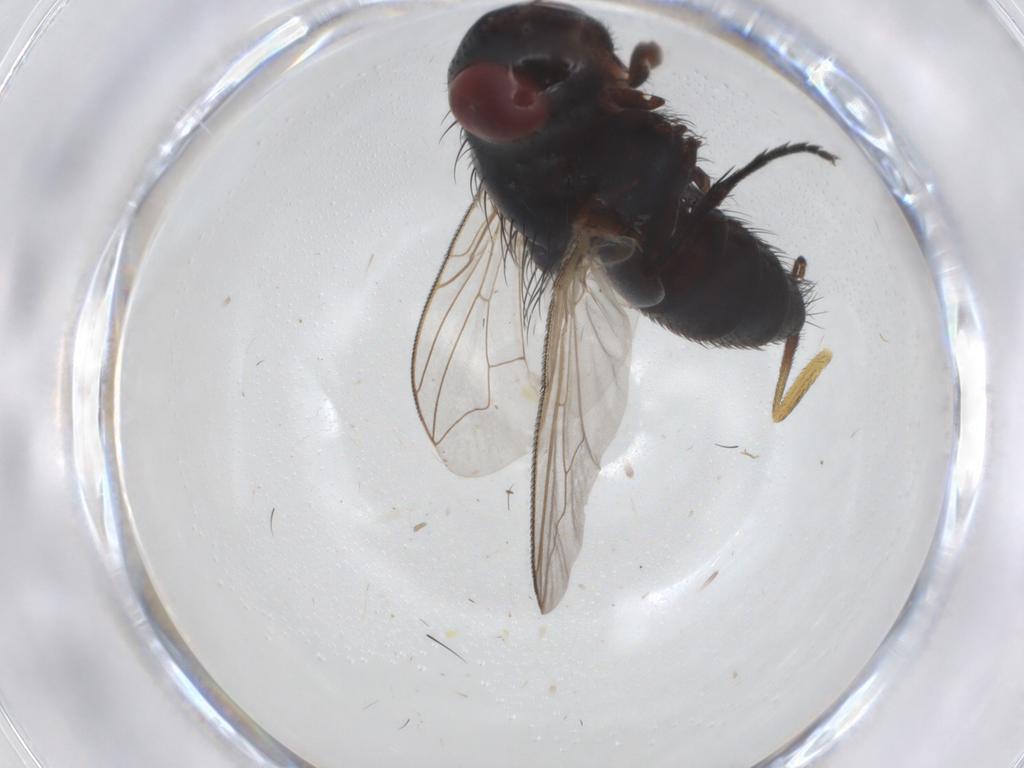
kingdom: Animalia
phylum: Arthropoda
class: Insecta
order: Diptera
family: Sarcophagidae
